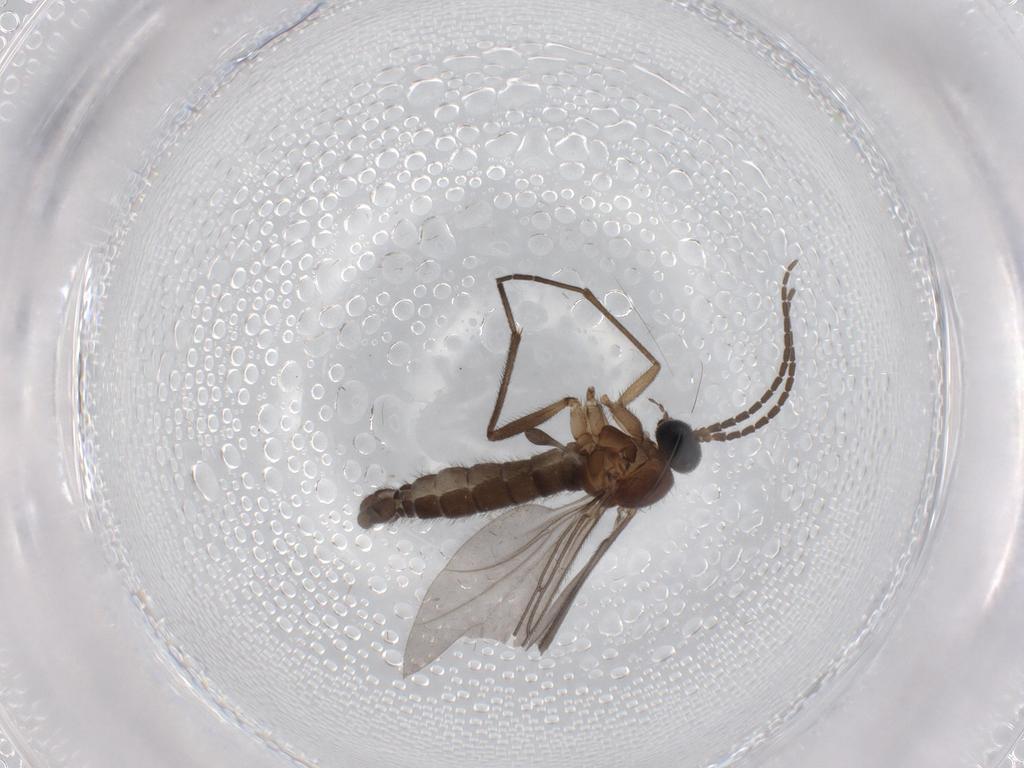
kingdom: Animalia
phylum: Arthropoda
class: Insecta
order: Diptera
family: Sciaridae
